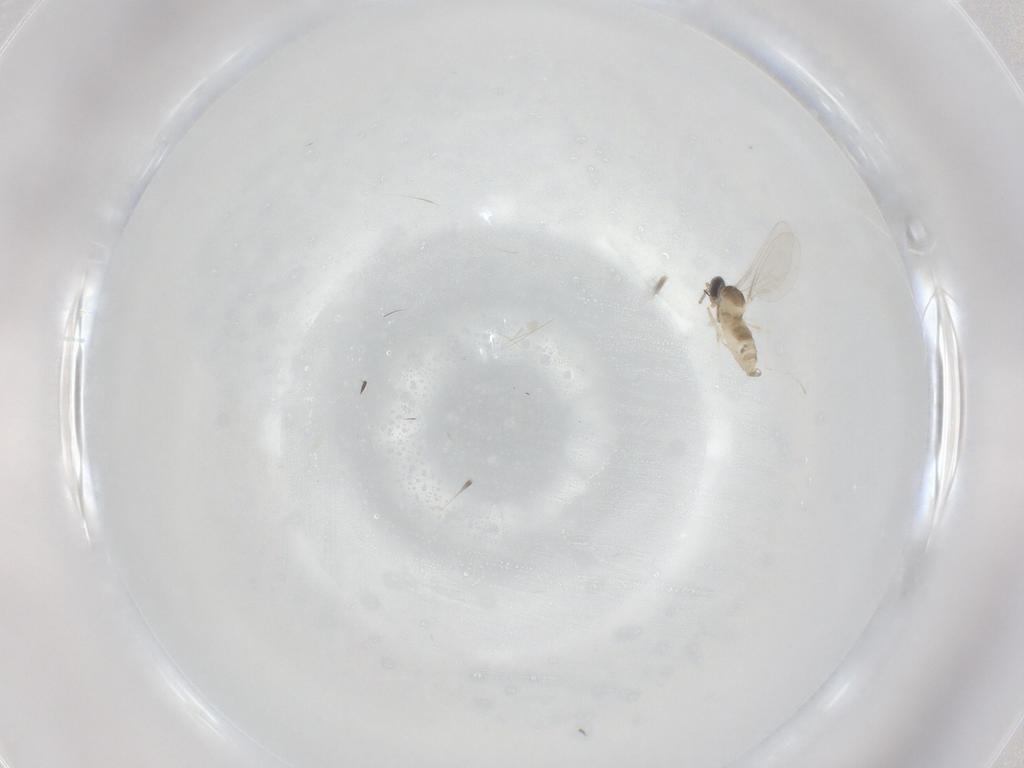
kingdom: Animalia
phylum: Arthropoda
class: Insecta
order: Diptera
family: Cecidomyiidae
